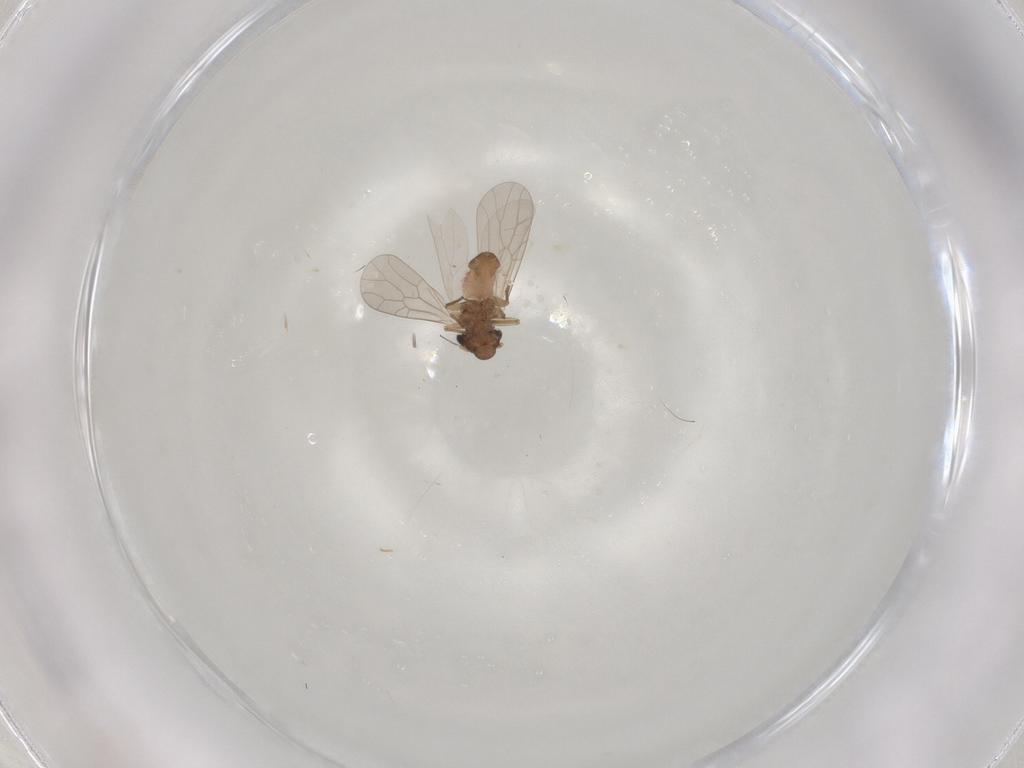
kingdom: Animalia
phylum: Arthropoda
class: Insecta
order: Psocodea
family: Lepidopsocidae
